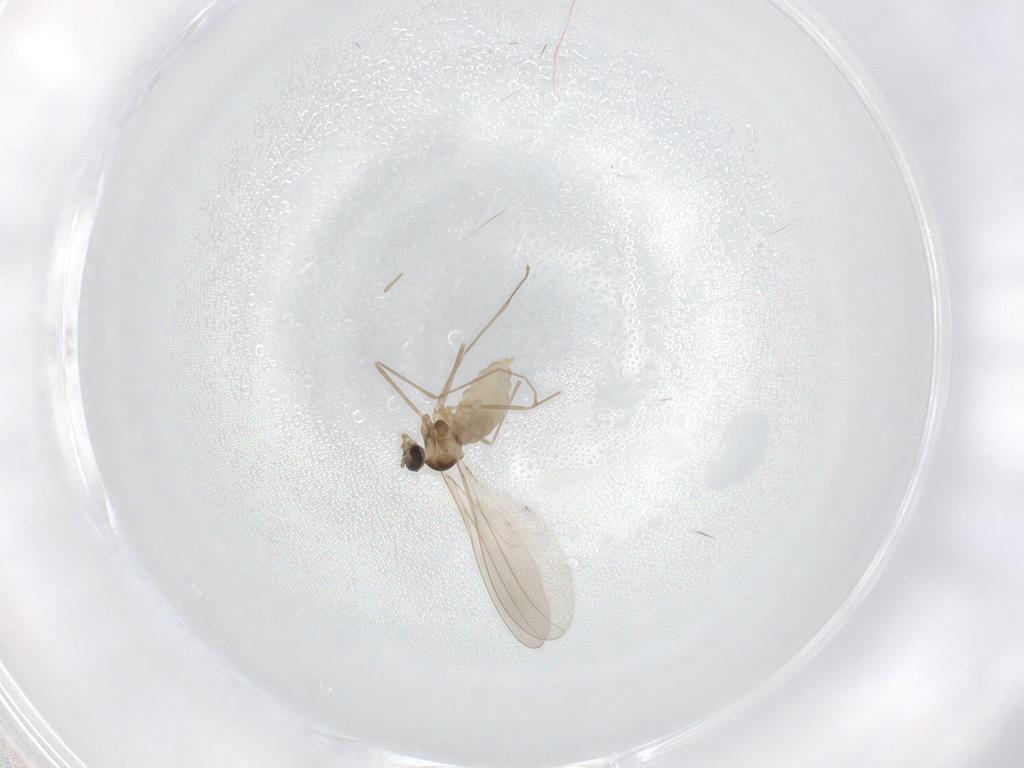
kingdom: Animalia
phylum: Arthropoda
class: Insecta
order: Diptera
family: Cecidomyiidae
